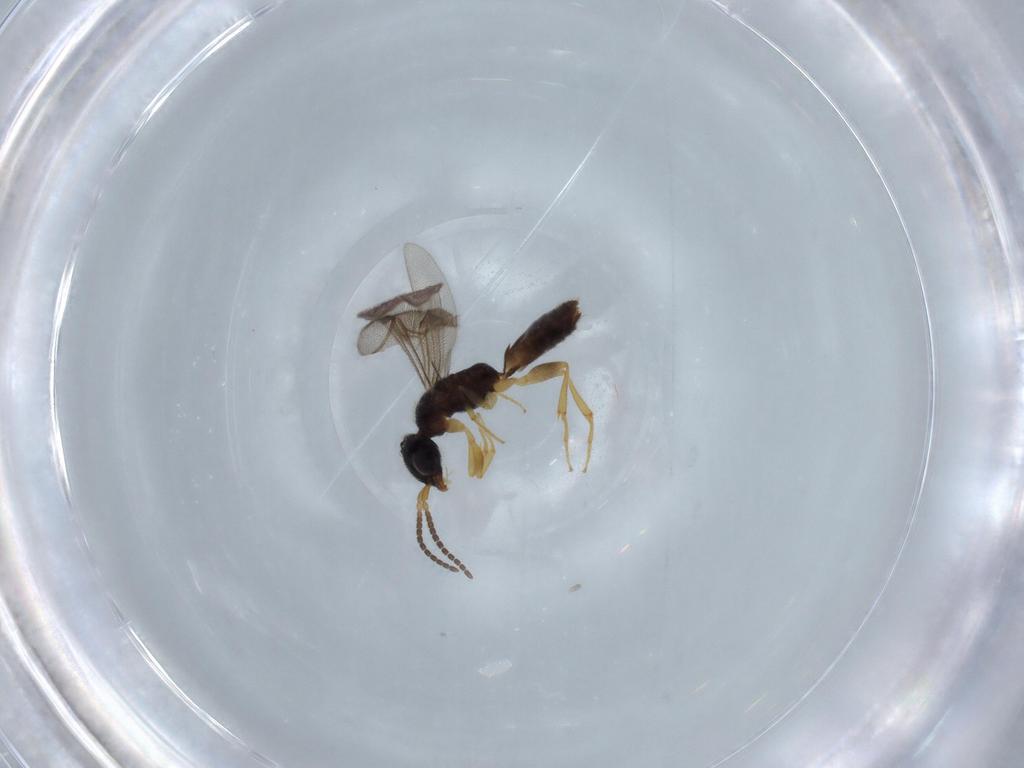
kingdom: Animalia
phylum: Arthropoda
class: Insecta
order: Hymenoptera
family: Bethylidae
